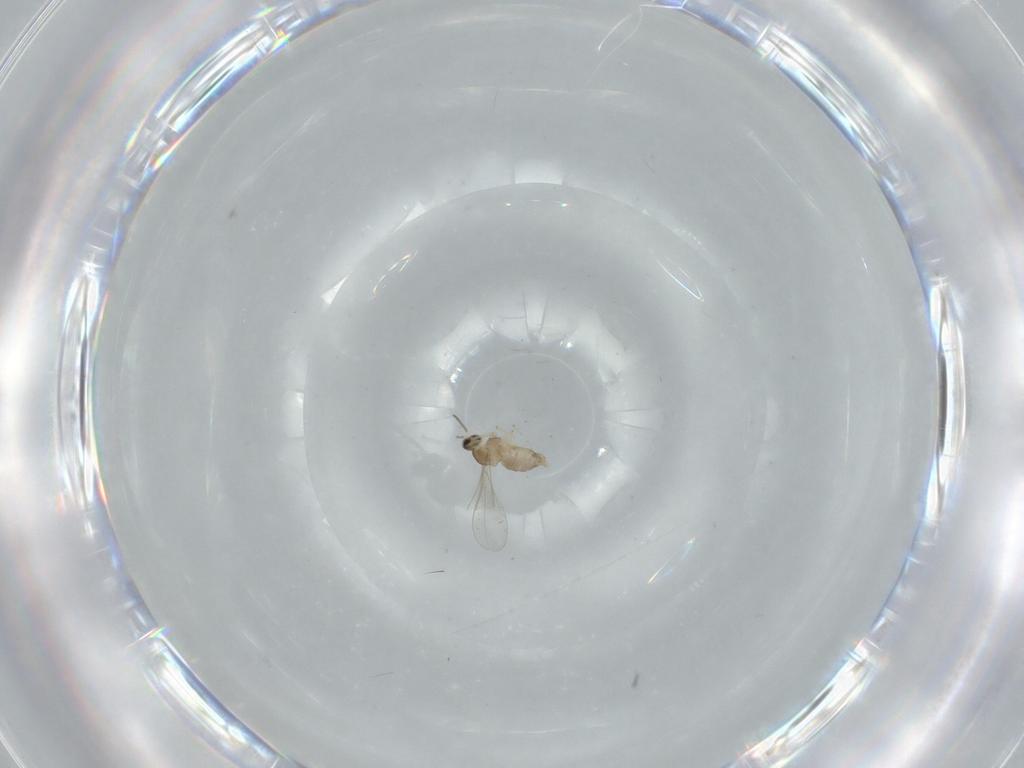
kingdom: Animalia
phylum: Arthropoda
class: Insecta
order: Diptera
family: Cecidomyiidae
